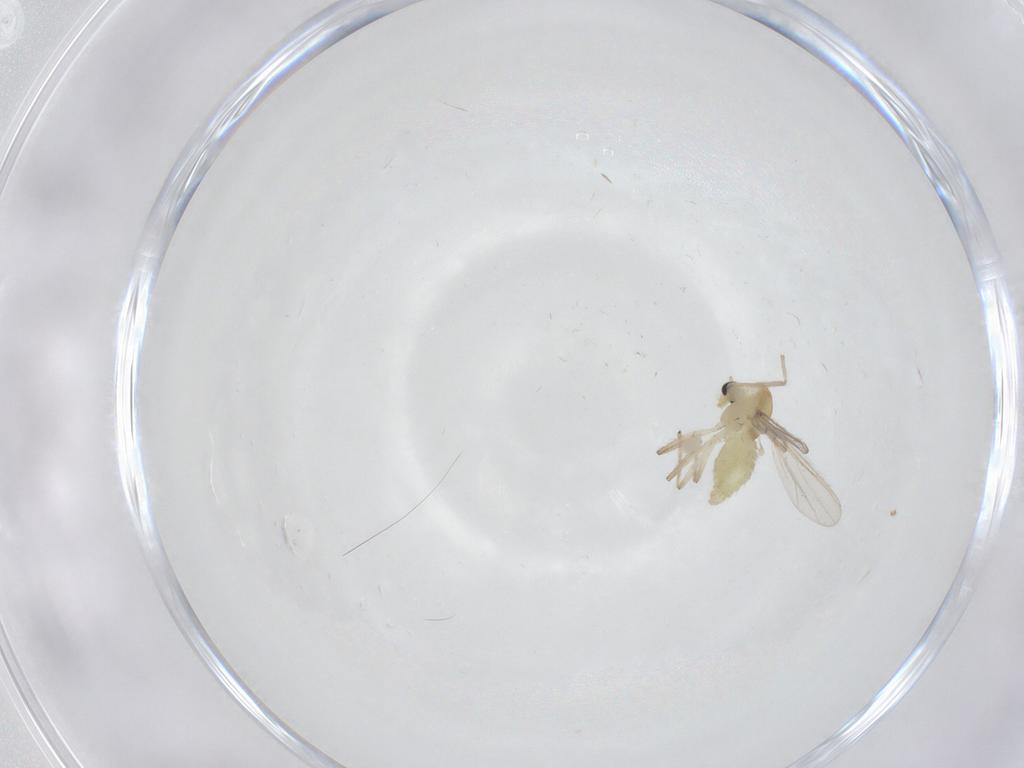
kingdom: Animalia
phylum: Arthropoda
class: Insecta
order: Diptera
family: Chironomidae
